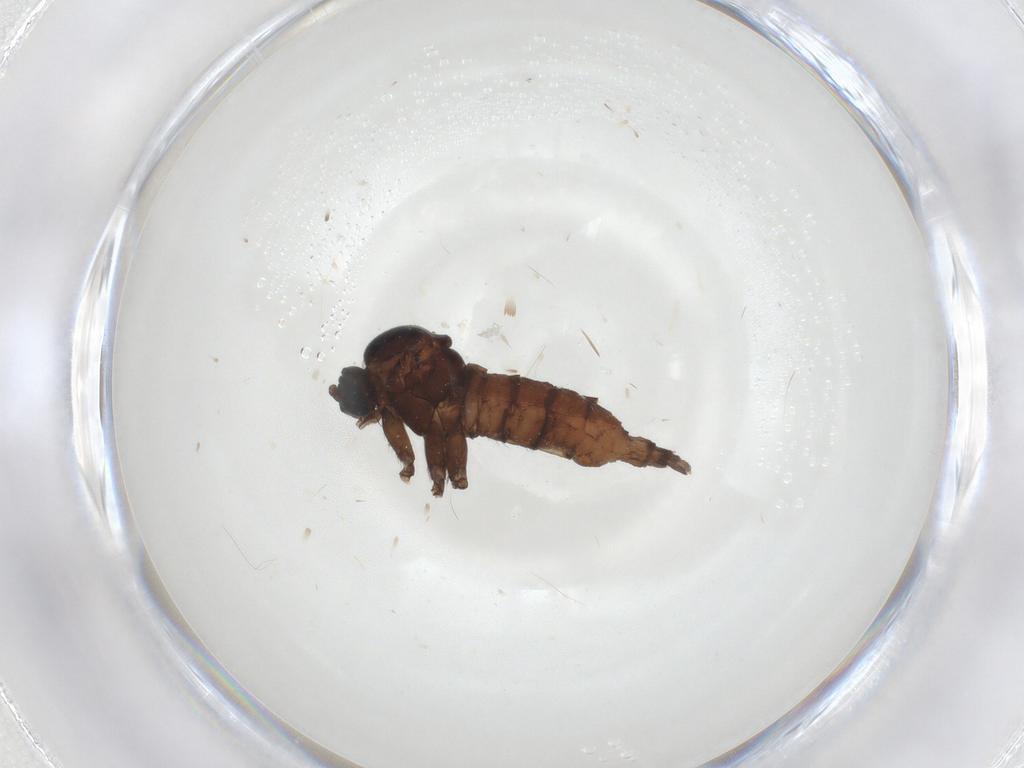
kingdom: Animalia
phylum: Arthropoda
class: Insecta
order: Diptera
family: Sciaridae
